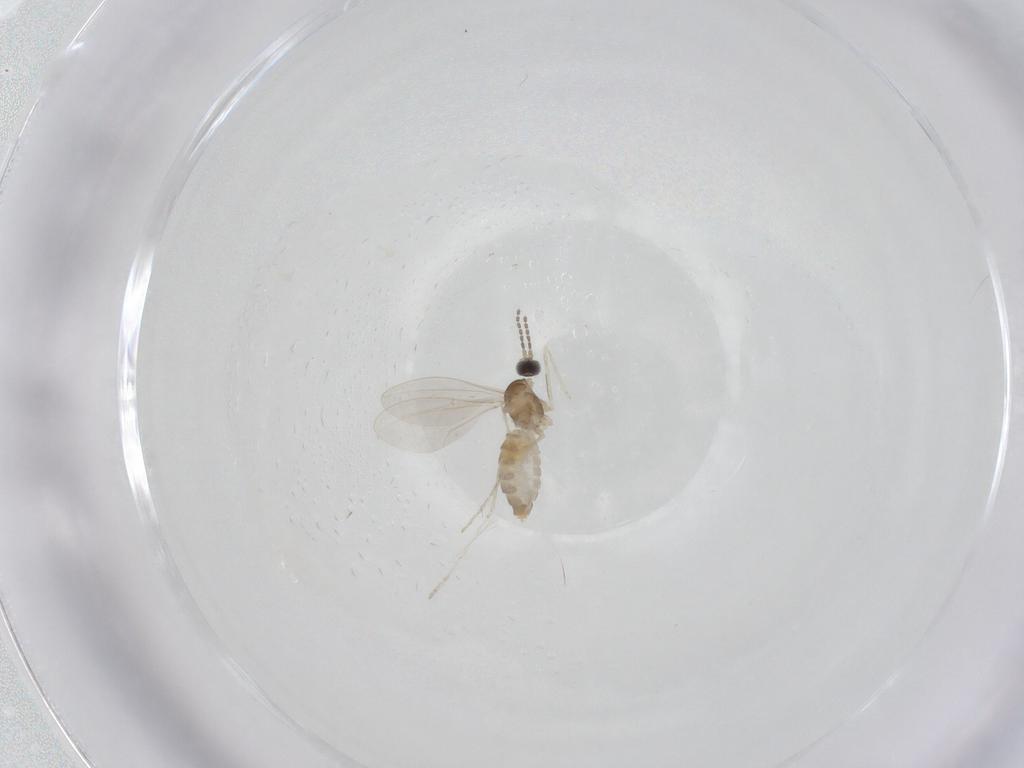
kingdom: Animalia
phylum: Arthropoda
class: Insecta
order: Diptera
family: Cecidomyiidae
